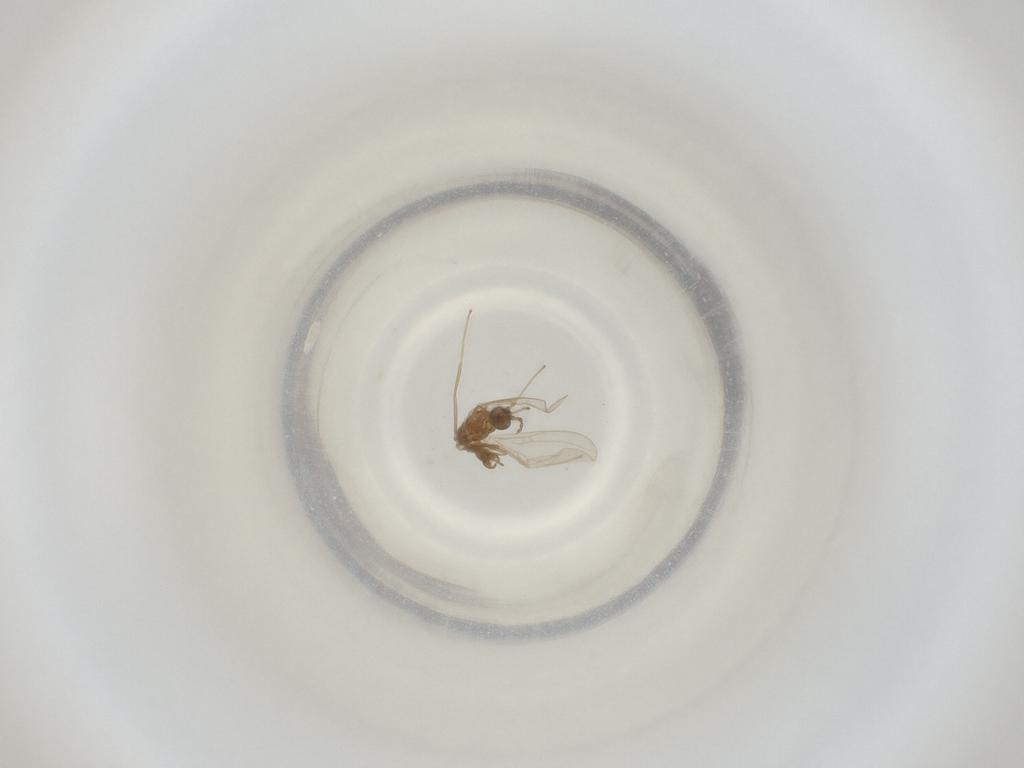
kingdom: Animalia
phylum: Arthropoda
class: Insecta
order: Diptera
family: Cecidomyiidae
